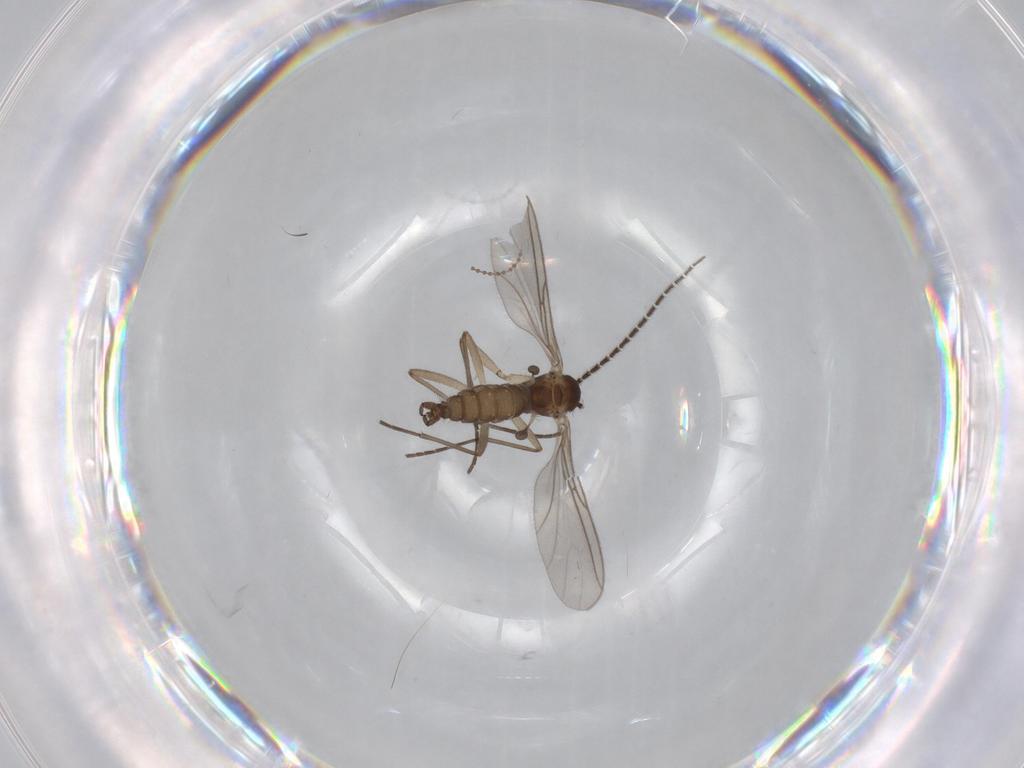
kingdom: Animalia
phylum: Arthropoda
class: Insecta
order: Diptera
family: Sciaridae
